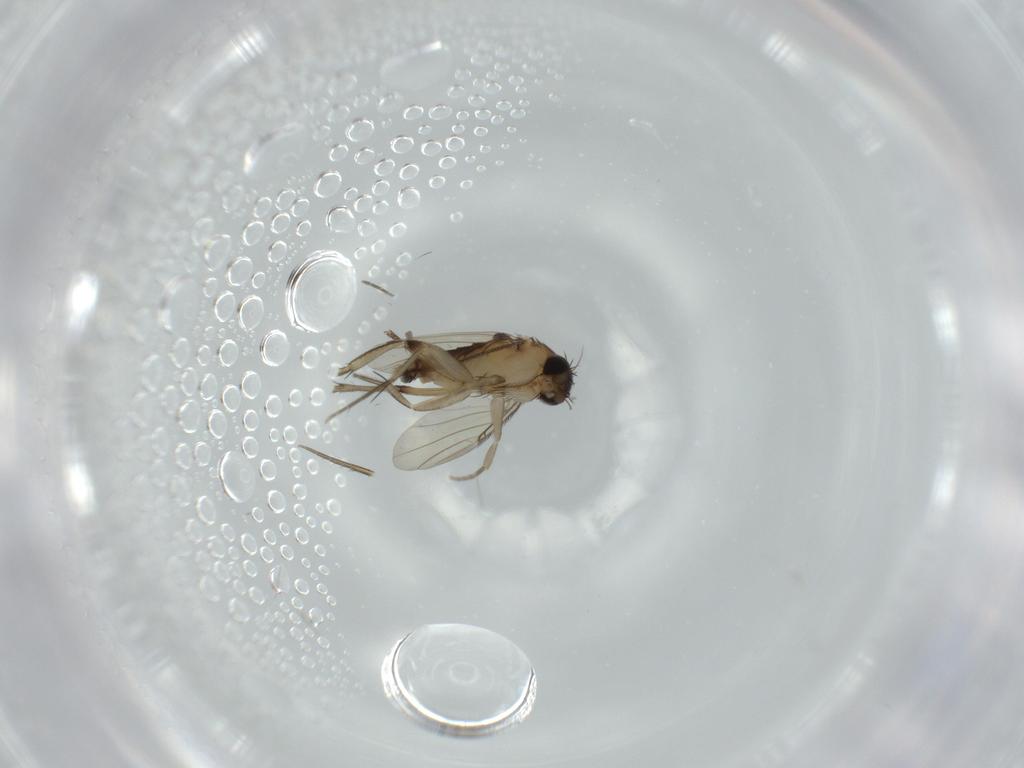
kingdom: Animalia
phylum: Arthropoda
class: Insecta
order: Diptera
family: Phoridae
